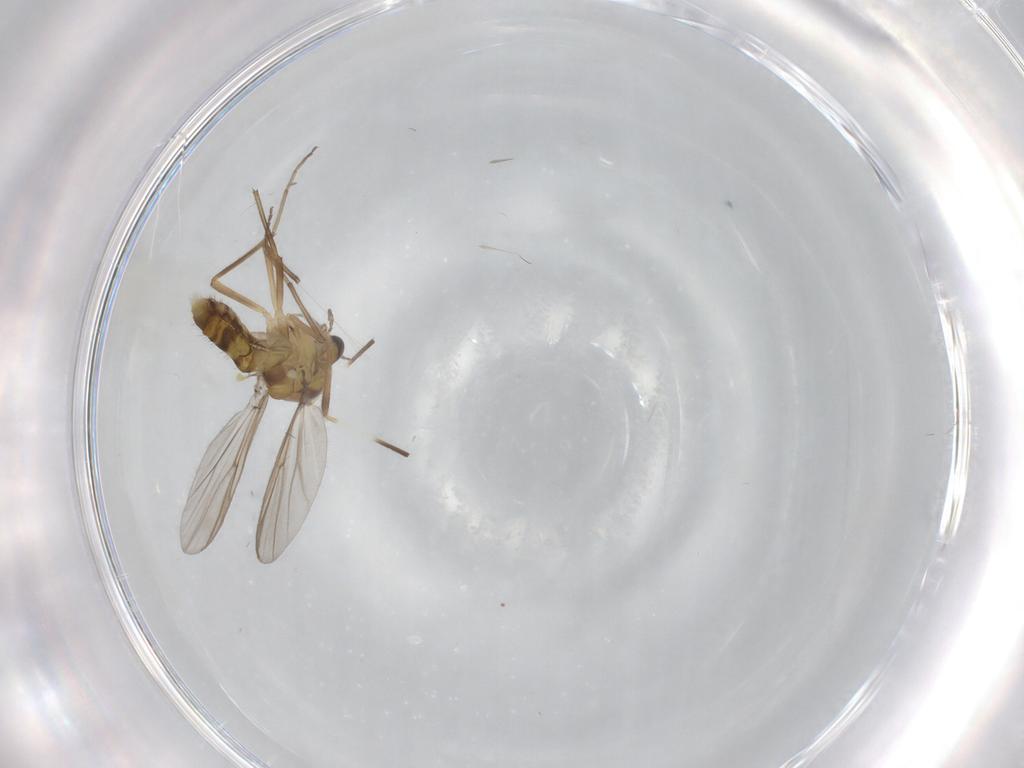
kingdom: Animalia
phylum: Arthropoda
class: Insecta
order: Diptera
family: Chironomidae
